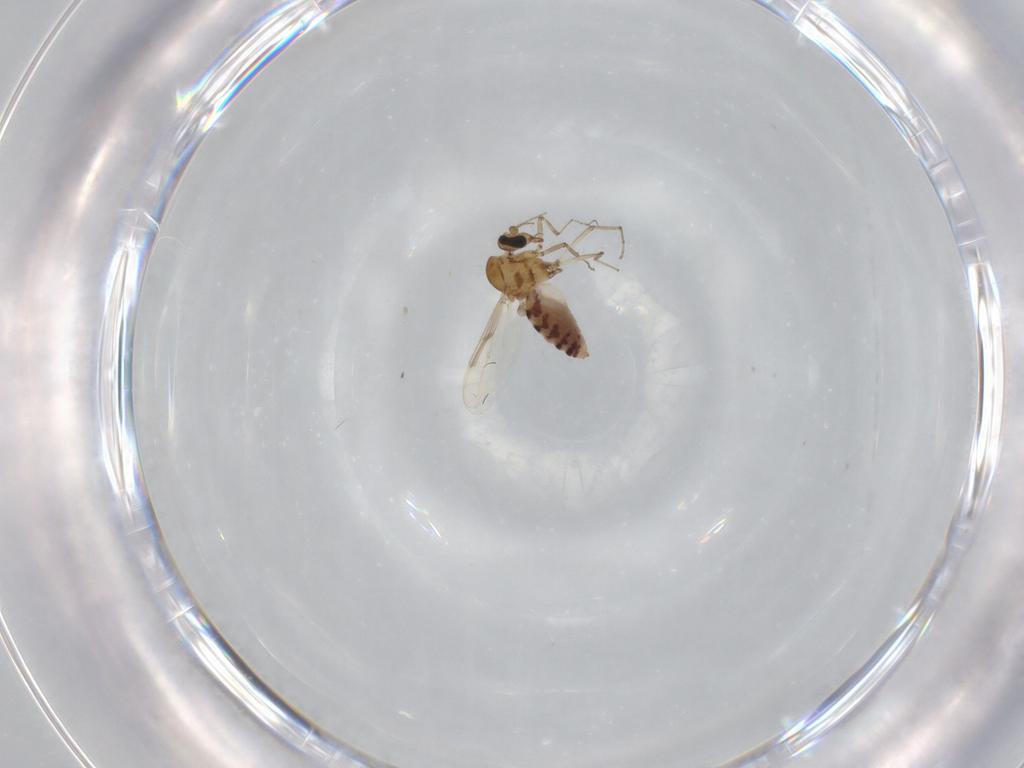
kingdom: Animalia
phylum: Arthropoda
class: Insecta
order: Diptera
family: Ceratopogonidae
